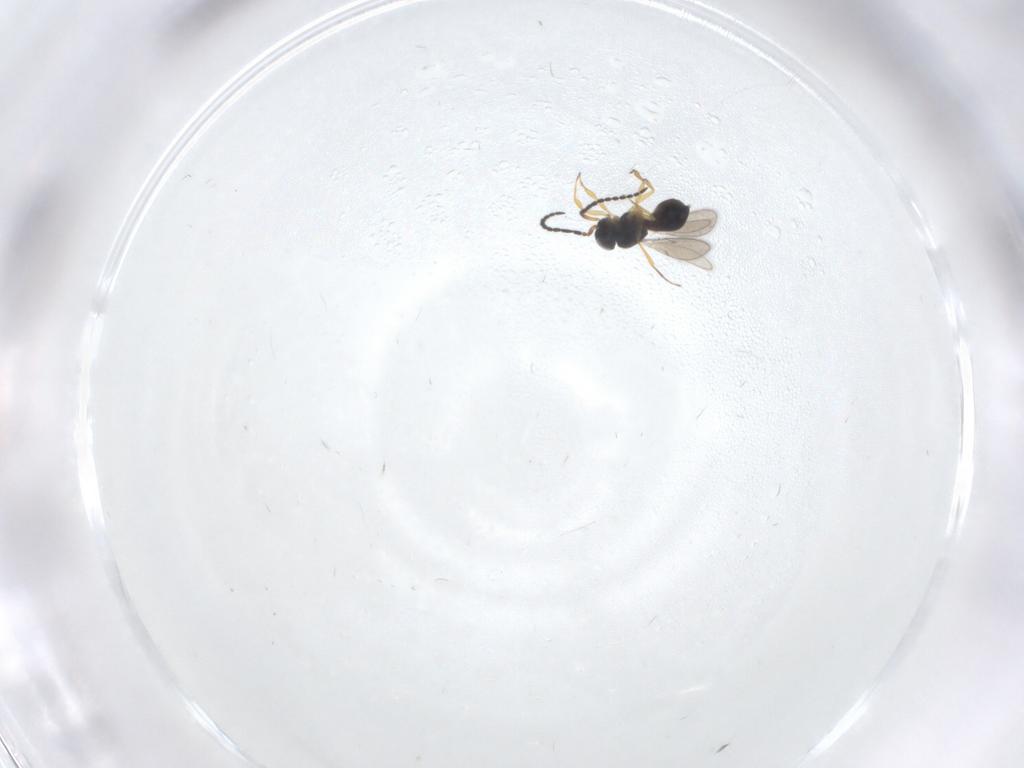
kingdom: Animalia
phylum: Arthropoda
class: Insecta
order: Hymenoptera
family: Scelionidae
